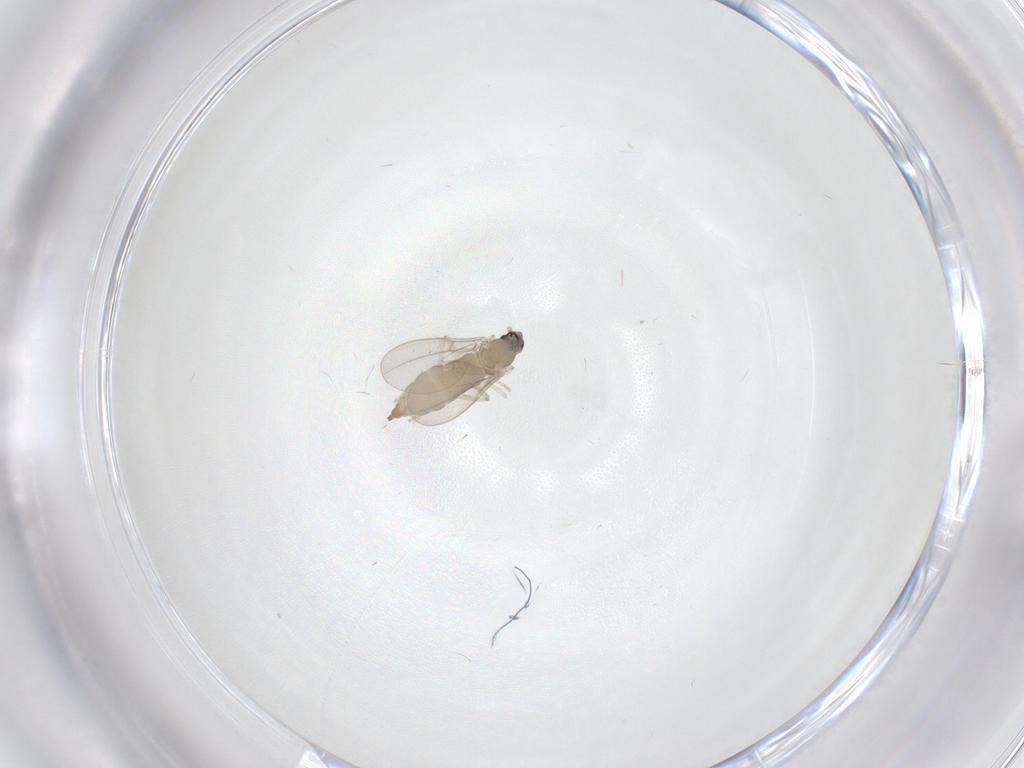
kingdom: Animalia
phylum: Arthropoda
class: Insecta
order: Diptera
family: Cecidomyiidae
